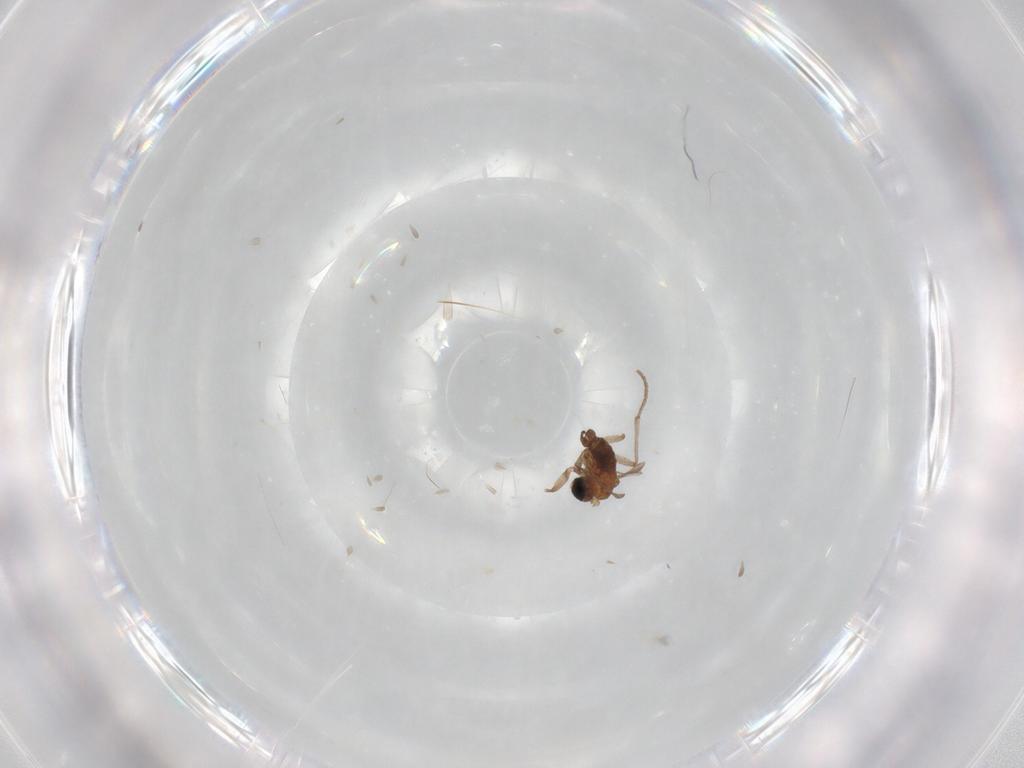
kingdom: Animalia
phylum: Arthropoda
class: Insecta
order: Diptera
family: Sciaridae
